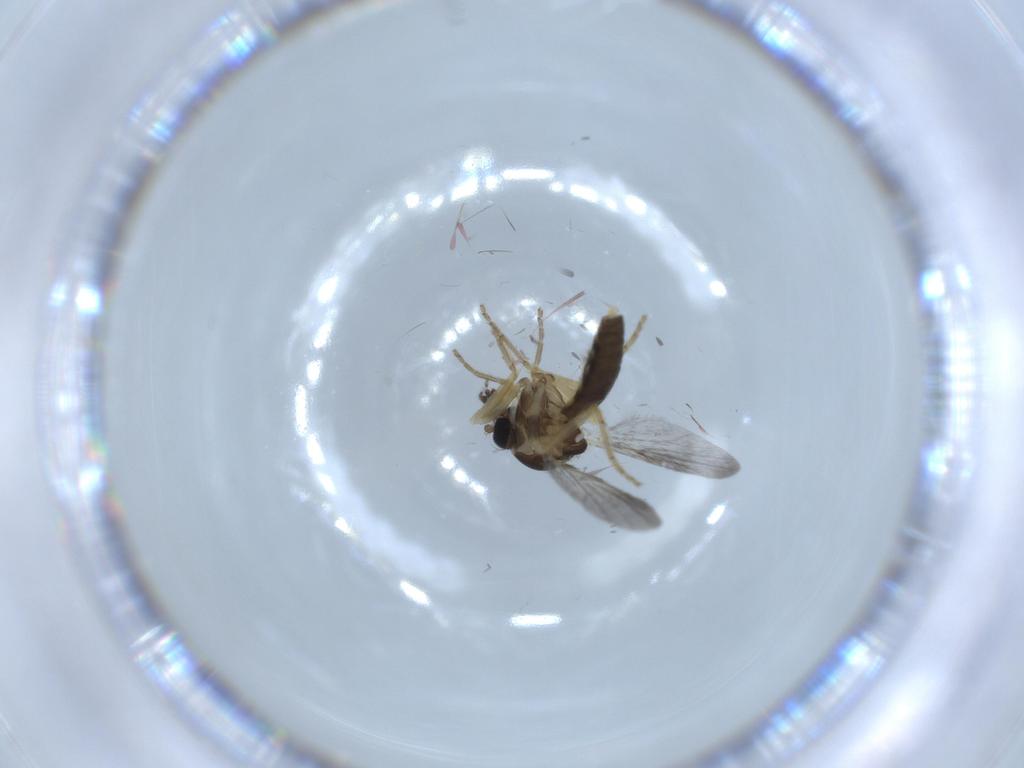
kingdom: Animalia
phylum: Arthropoda
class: Insecta
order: Diptera
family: Ceratopogonidae
